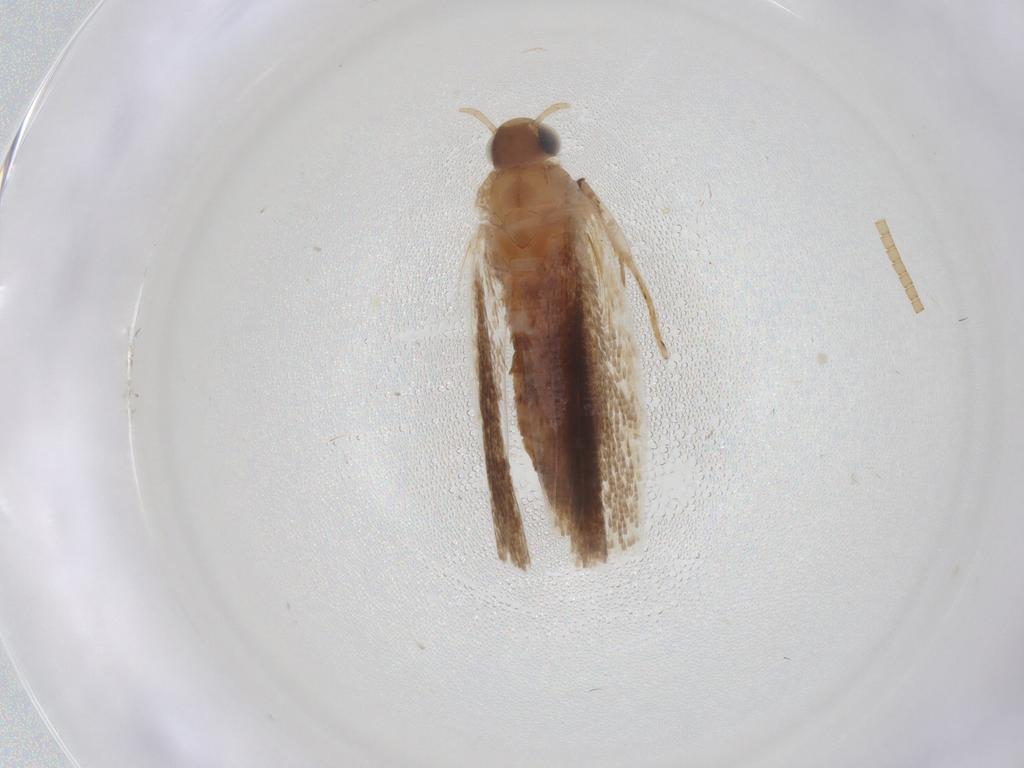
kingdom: Animalia
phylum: Arthropoda
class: Insecta
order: Lepidoptera
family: Gelechiidae
